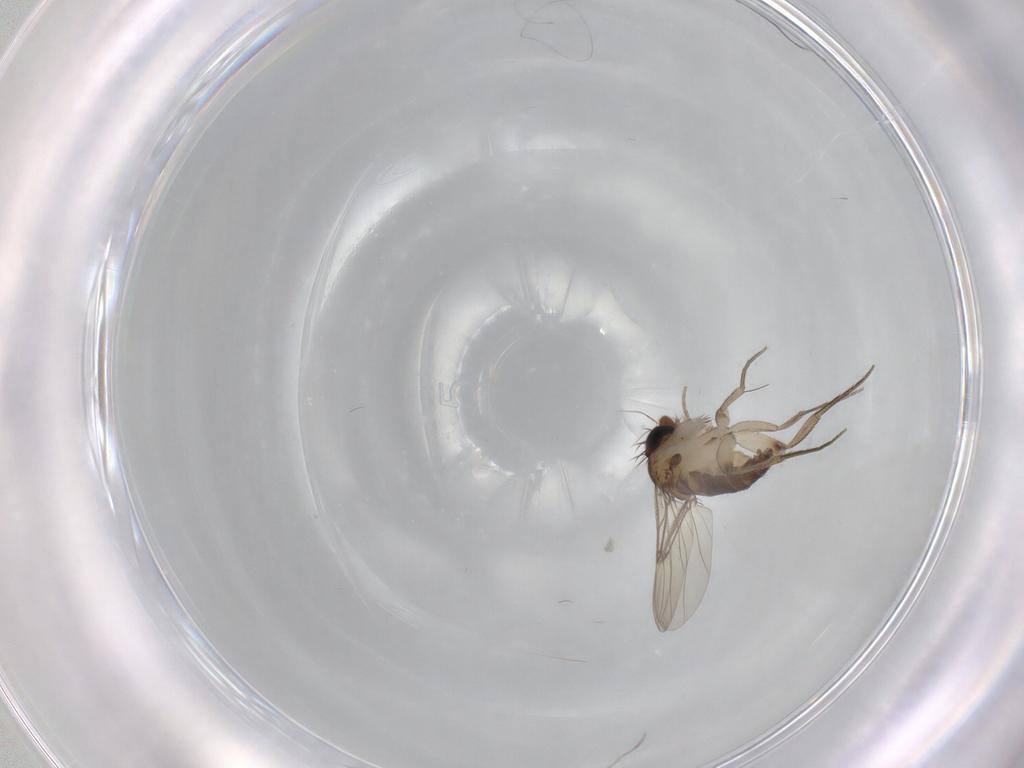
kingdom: Animalia
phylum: Arthropoda
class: Insecta
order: Diptera
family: Phoridae
